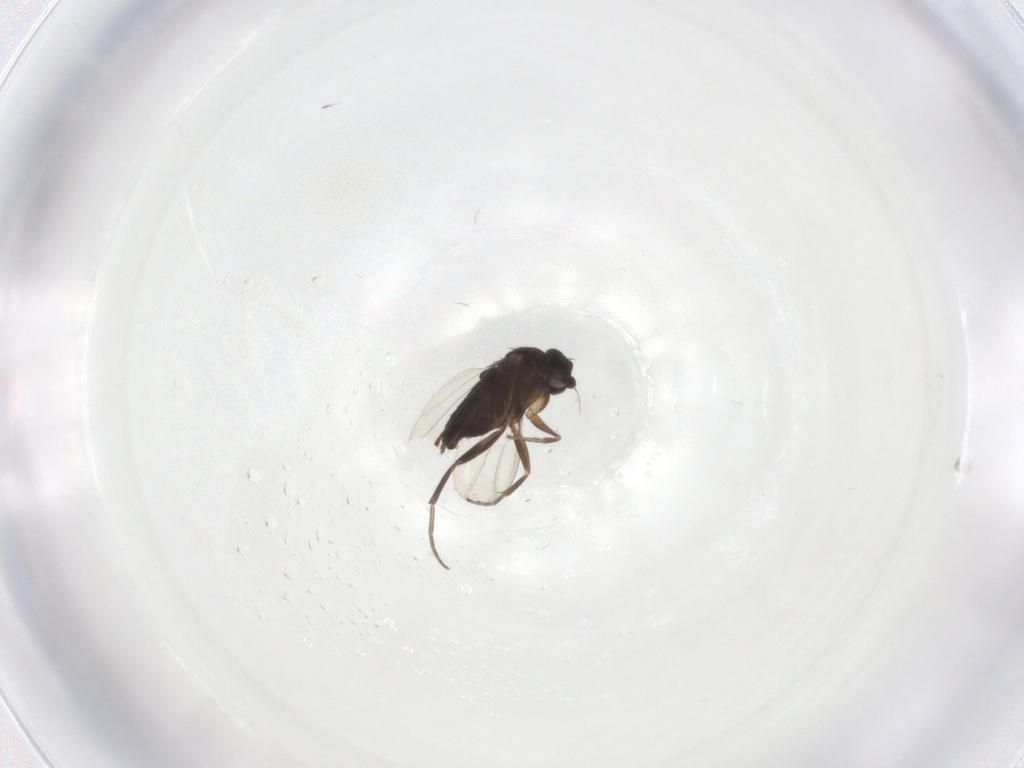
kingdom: Animalia
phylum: Arthropoda
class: Insecta
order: Diptera
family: Phoridae
